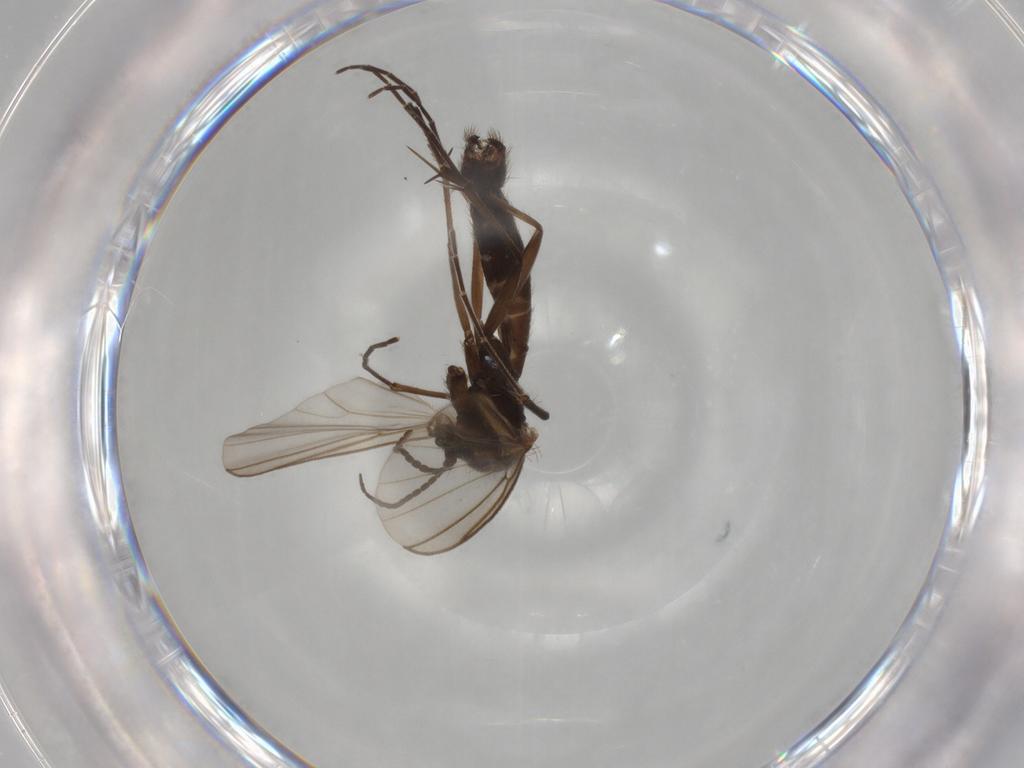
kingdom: Animalia
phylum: Arthropoda
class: Insecta
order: Diptera
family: Mycetophilidae
